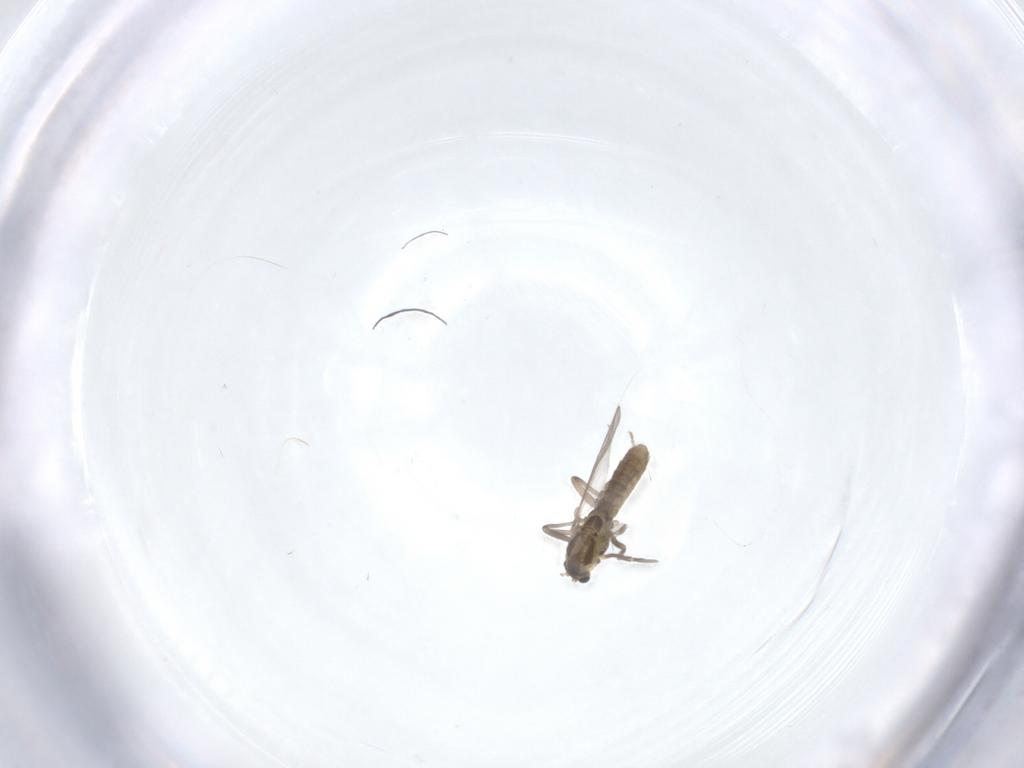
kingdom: Animalia
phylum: Arthropoda
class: Insecta
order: Diptera
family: Chironomidae
